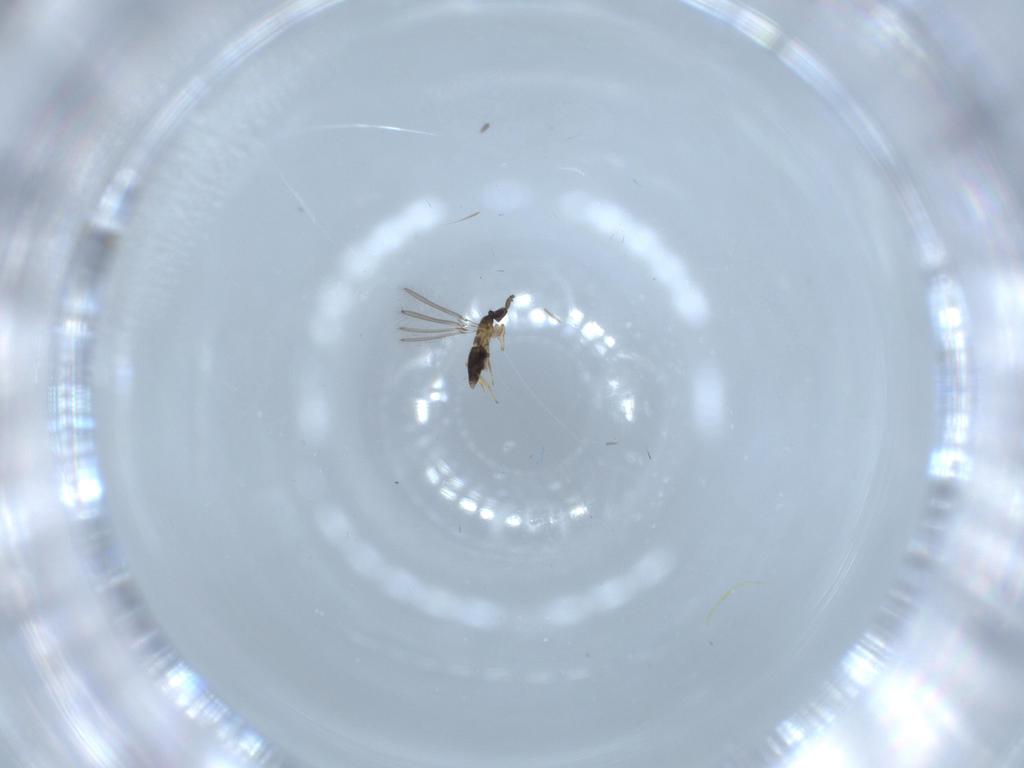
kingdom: Animalia
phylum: Arthropoda
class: Insecta
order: Hymenoptera
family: Mymaridae
